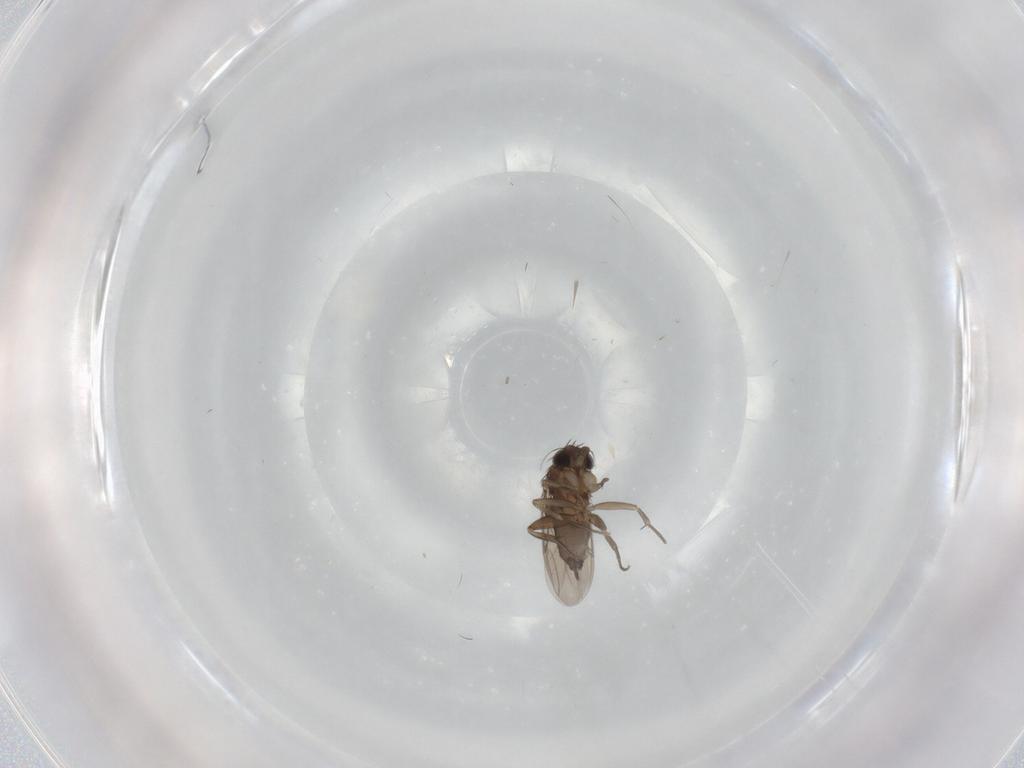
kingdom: Animalia
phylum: Arthropoda
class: Insecta
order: Diptera
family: Phoridae
